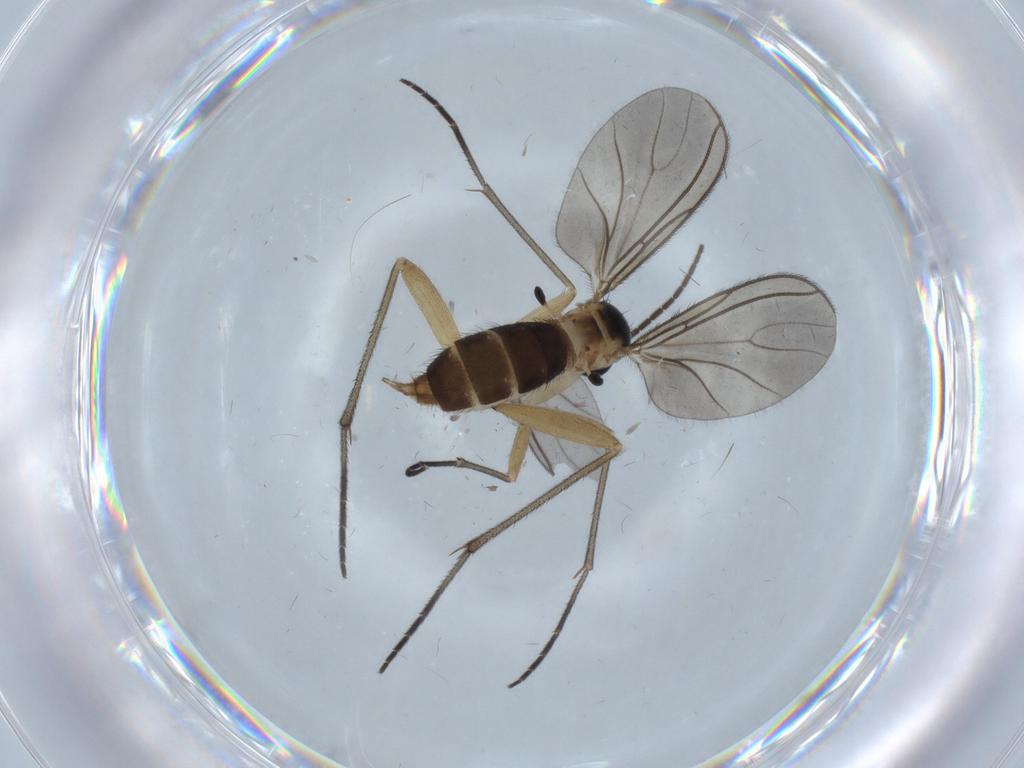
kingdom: Animalia
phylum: Arthropoda
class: Insecta
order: Diptera
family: Sciaridae
